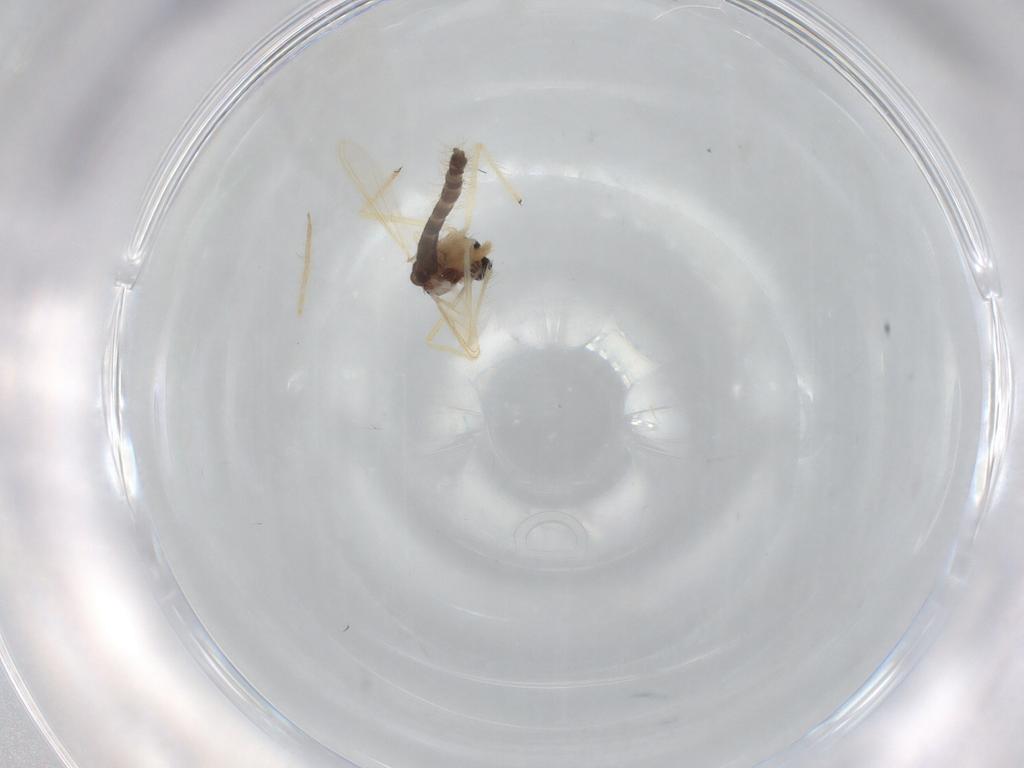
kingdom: Animalia
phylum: Arthropoda
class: Insecta
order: Diptera
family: Chironomidae
